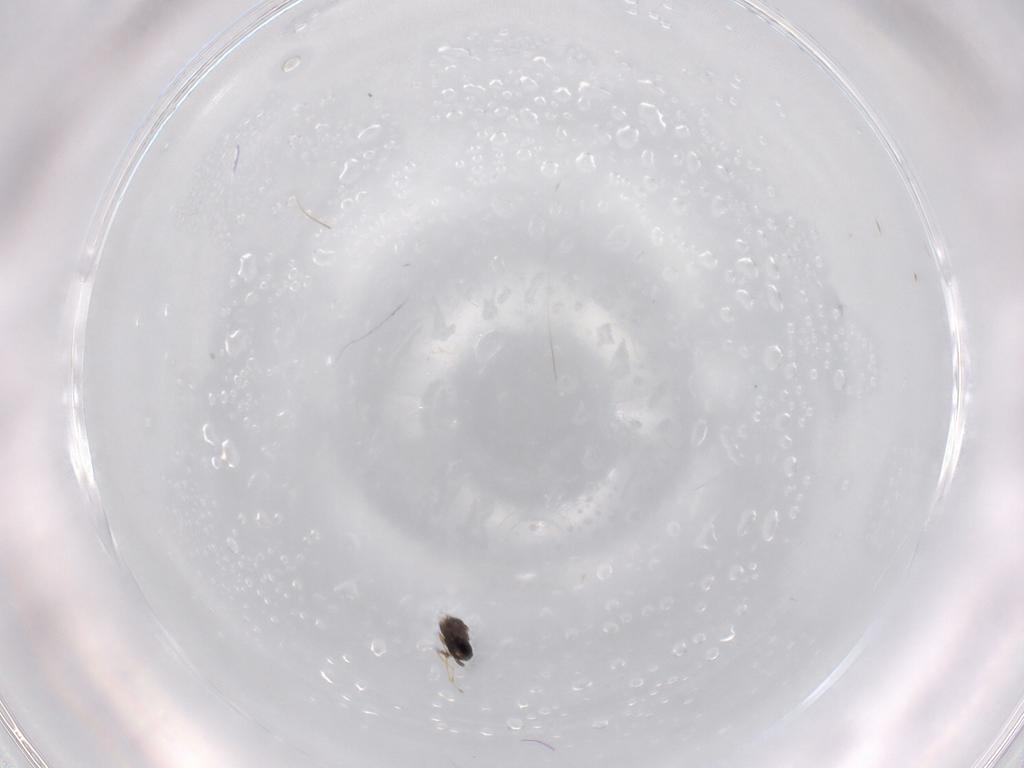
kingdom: Animalia
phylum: Arthropoda
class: Insecta
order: Hymenoptera
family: Trichogrammatidae
